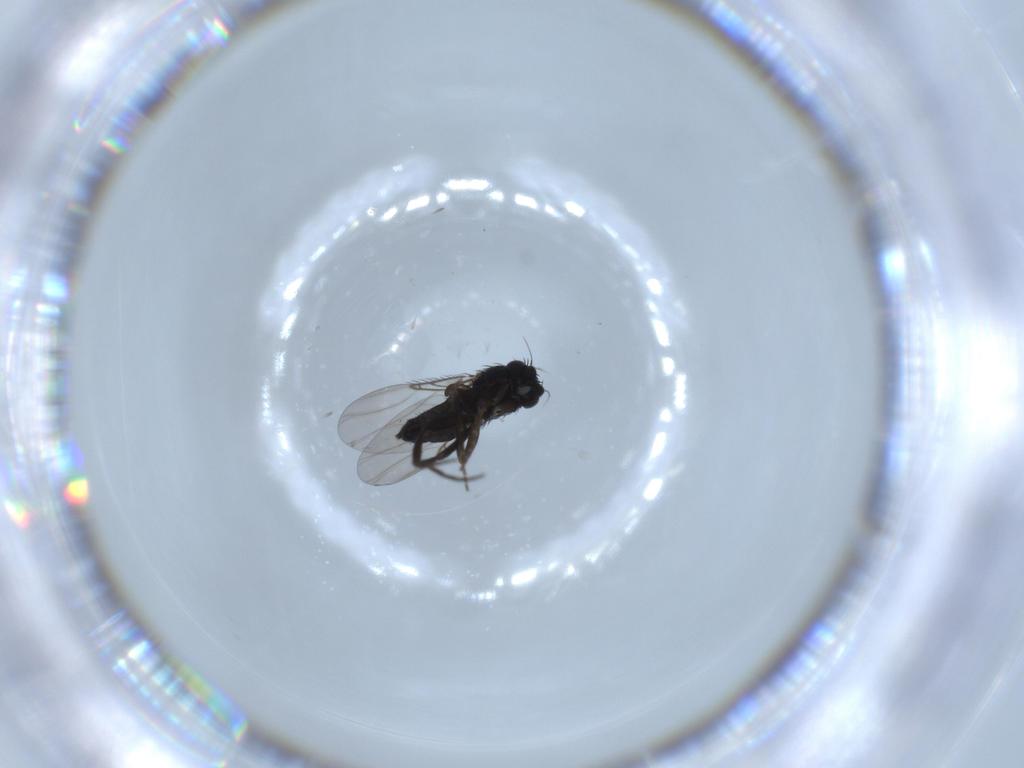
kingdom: Animalia
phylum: Arthropoda
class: Insecta
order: Diptera
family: Phoridae
